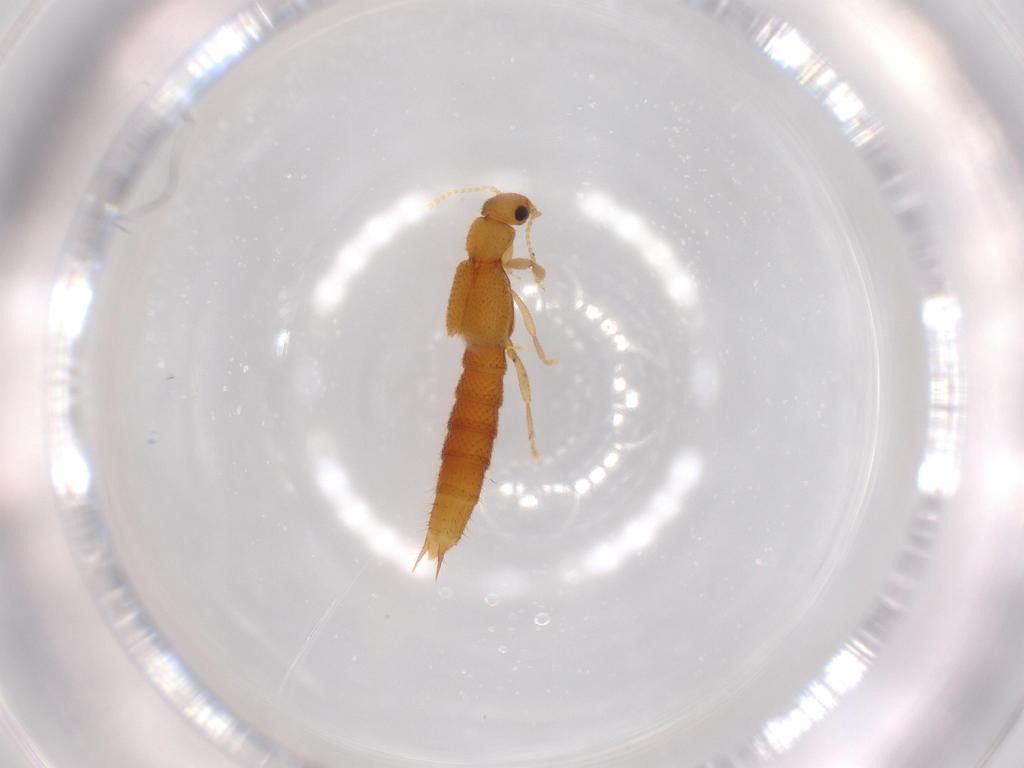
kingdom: Animalia
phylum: Arthropoda
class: Insecta
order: Coleoptera
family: Staphylinidae
